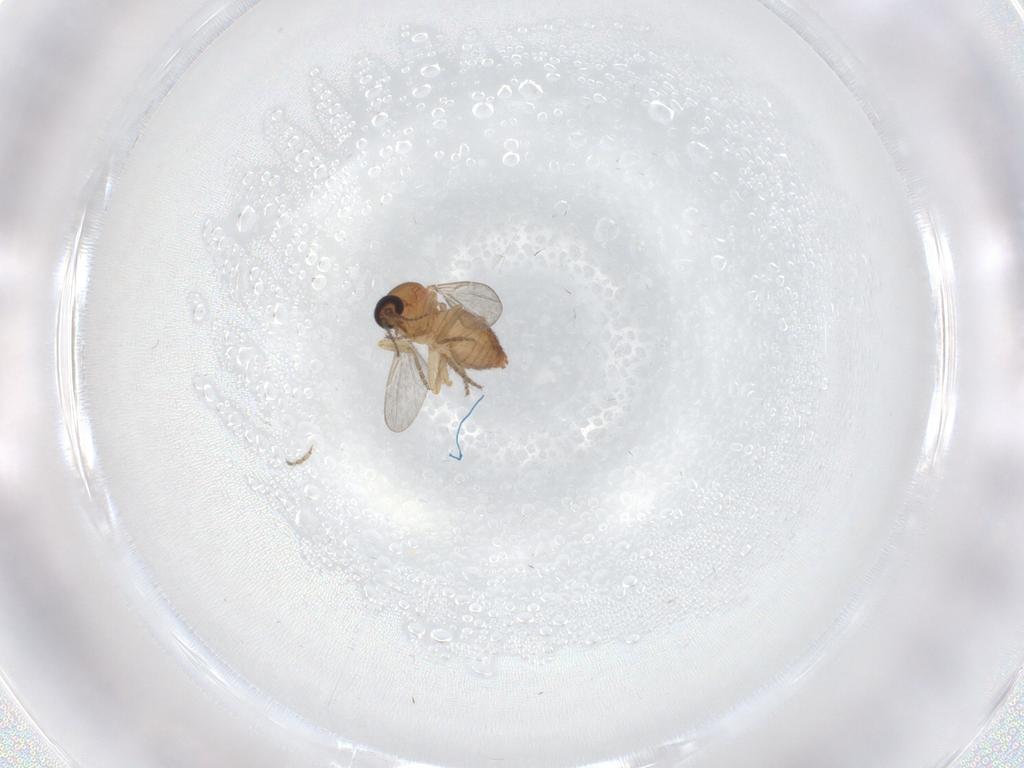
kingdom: Animalia
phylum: Arthropoda
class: Insecta
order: Diptera
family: Ceratopogonidae
